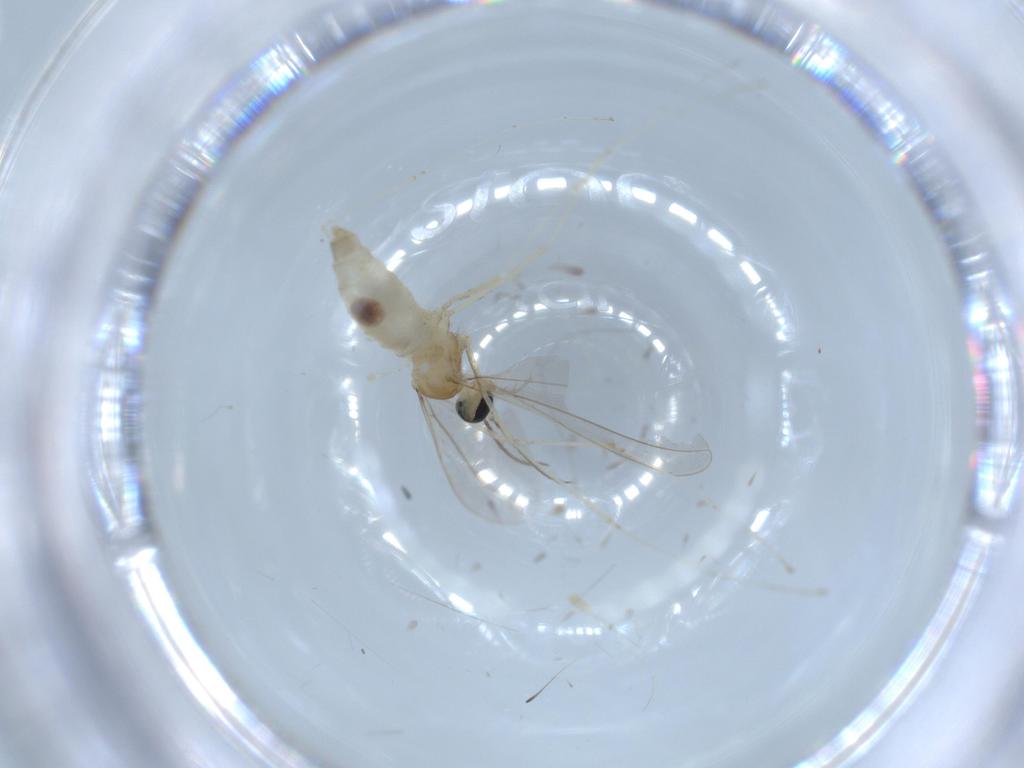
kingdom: Animalia
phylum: Arthropoda
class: Insecta
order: Diptera
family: Cecidomyiidae
